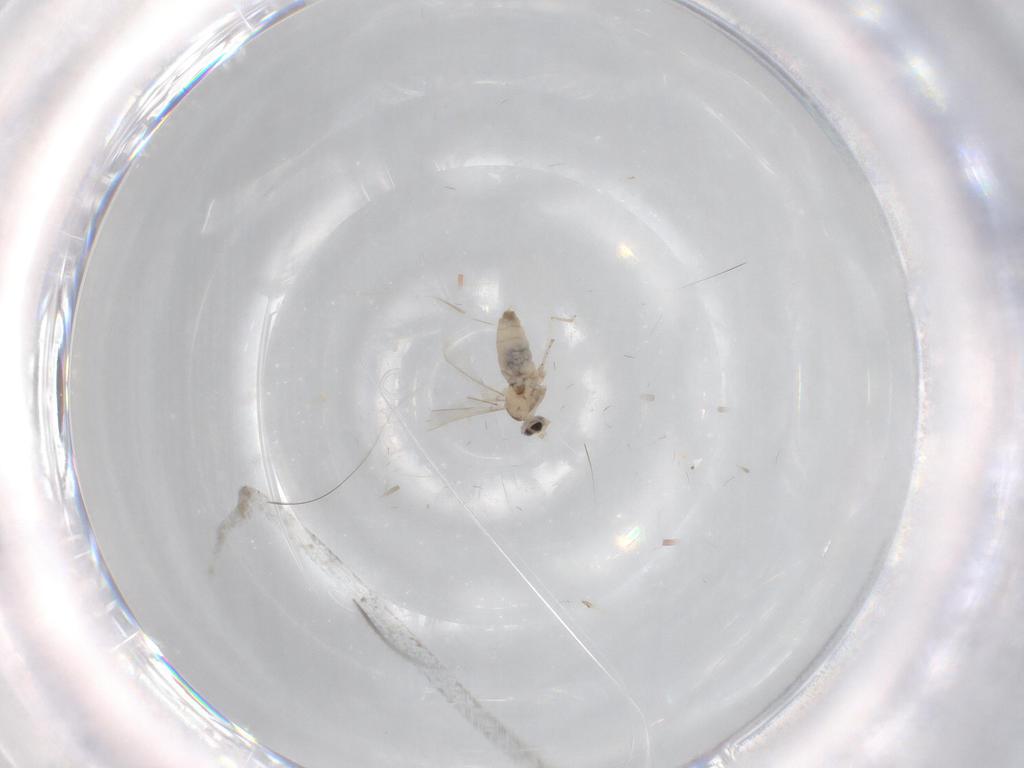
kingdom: Animalia
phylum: Arthropoda
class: Insecta
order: Diptera
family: Cecidomyiidae
